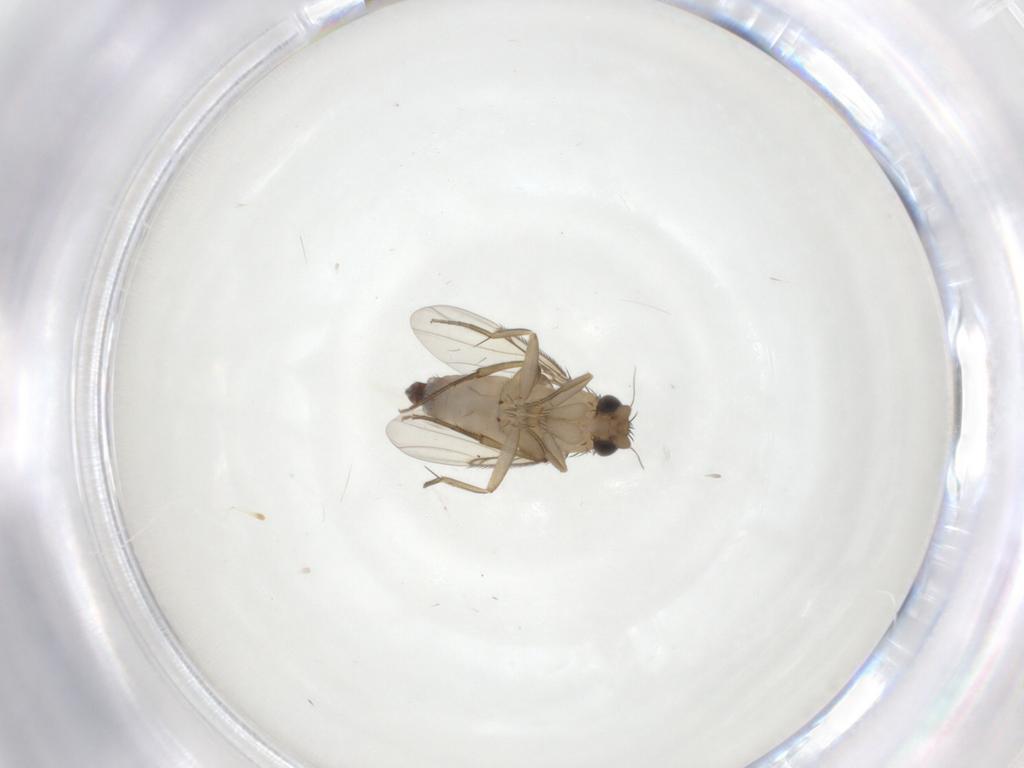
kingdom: Animalia
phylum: Arthropoda
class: Insecta
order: Diptera
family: Phoridae
